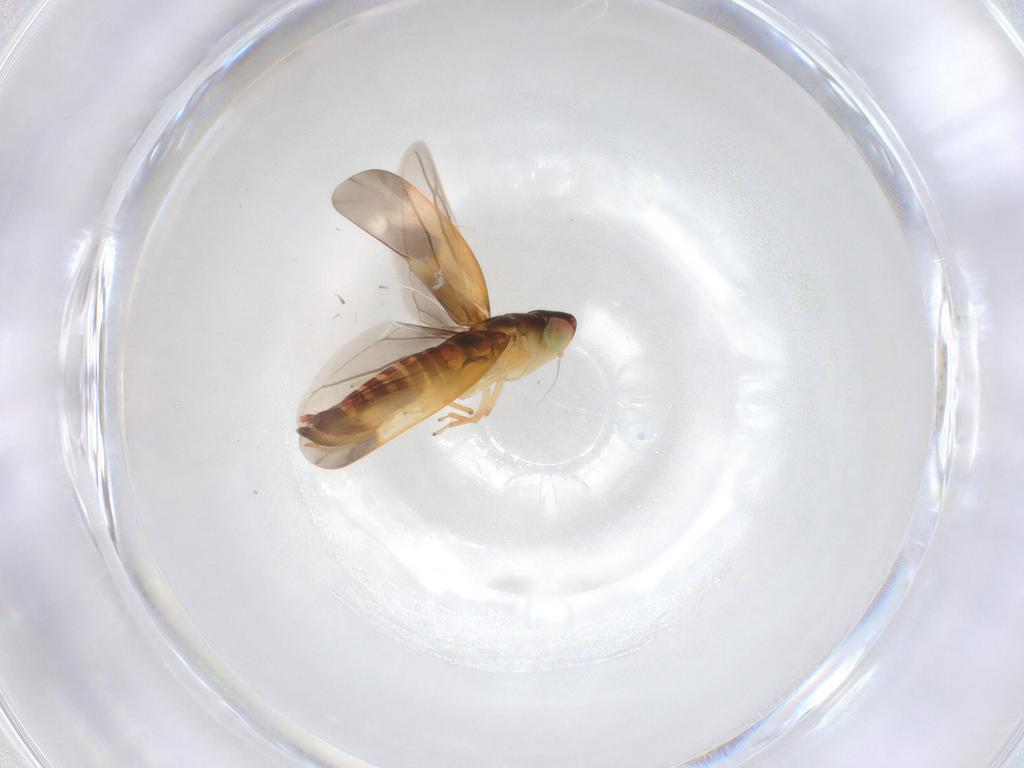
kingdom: Animalia
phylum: Arthropoda
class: Insecta
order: Hemiptera
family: Cicadellidae
